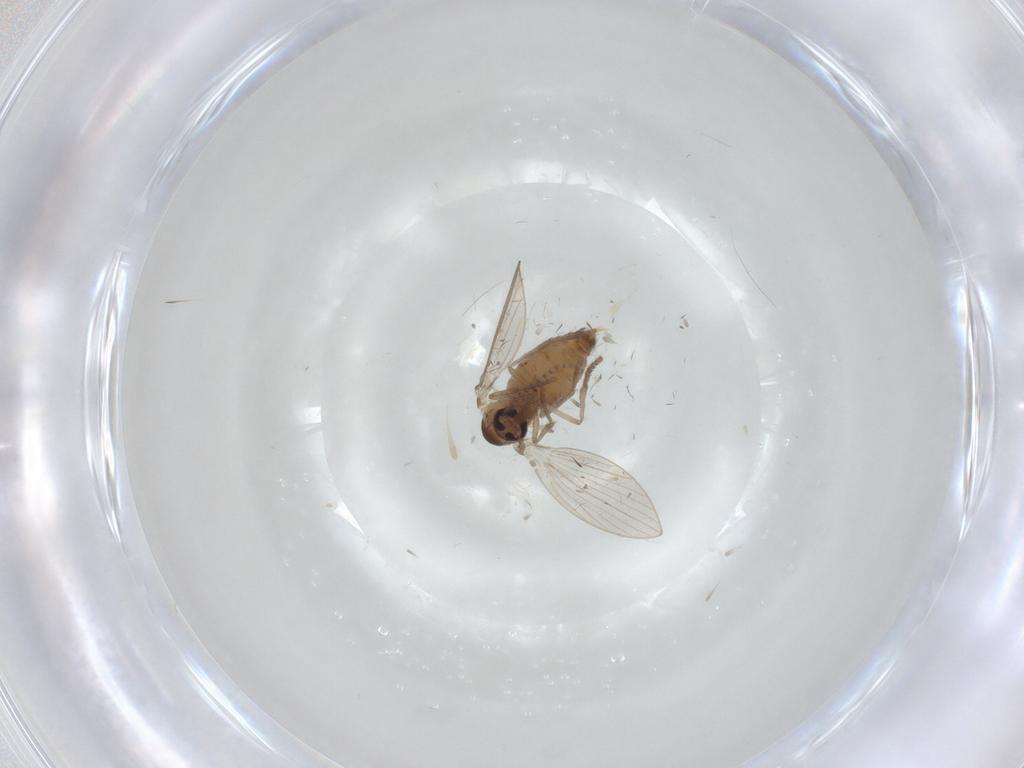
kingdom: Animalia
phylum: Arthropoda
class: Insecta
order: Diptera
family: Psychodidae
